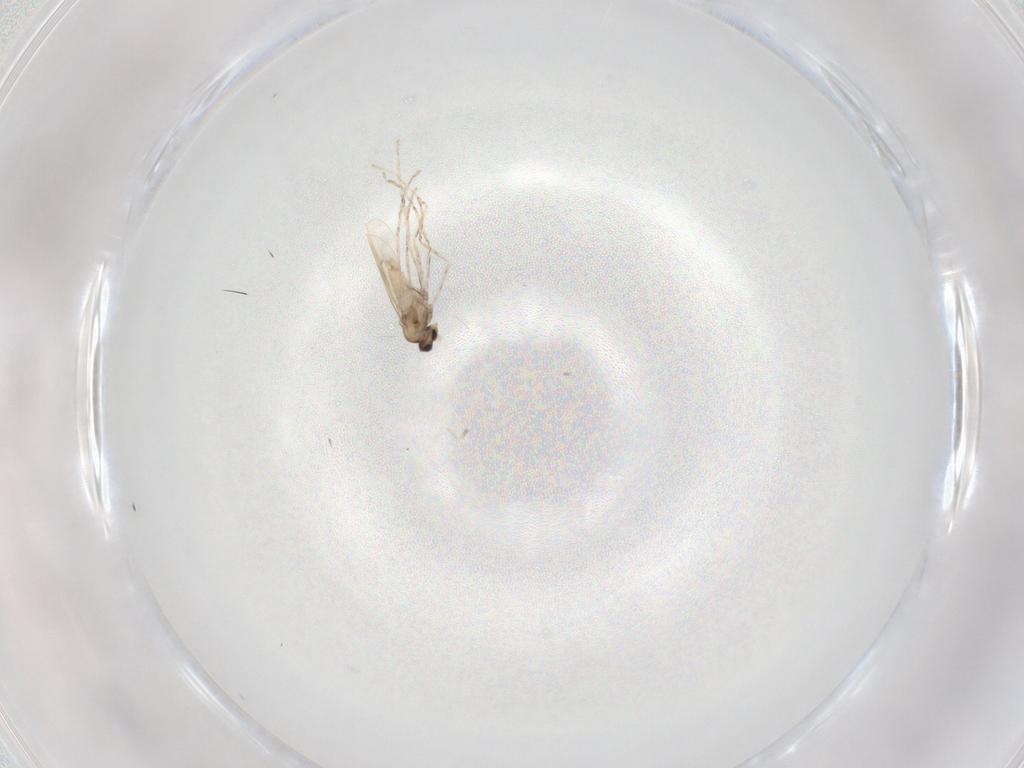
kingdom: Animalia
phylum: Arthropoda
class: Insecta
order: Diptera
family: Cecidomyiidae
